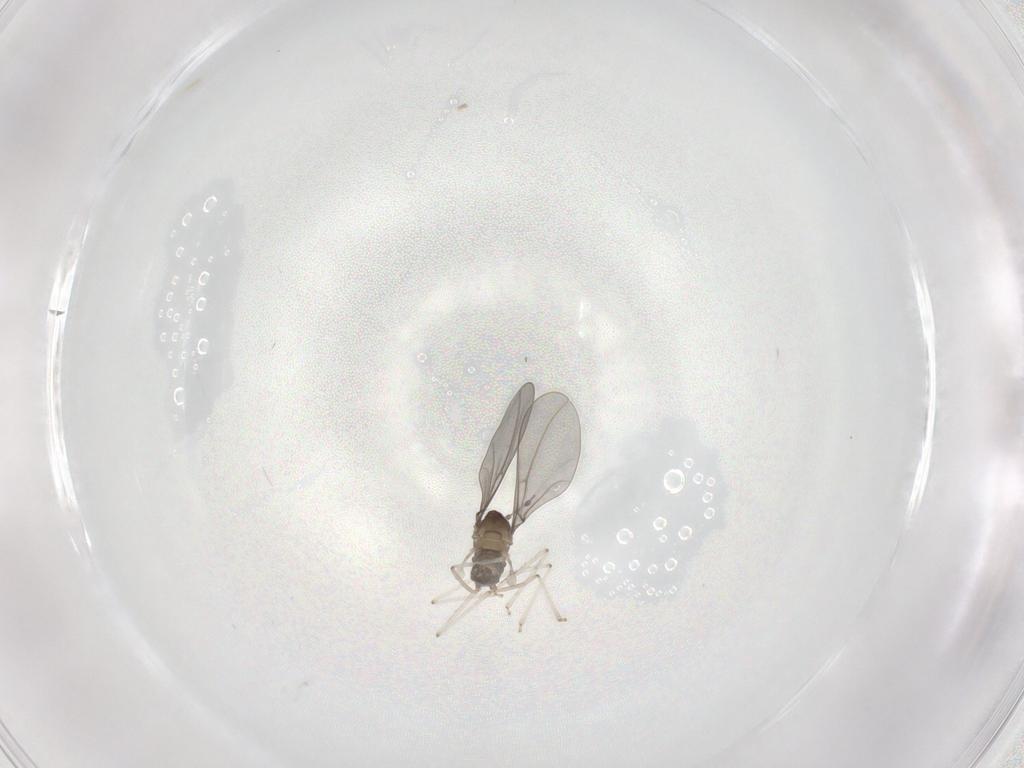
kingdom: Animalia
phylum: Arthropoda
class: Insecta
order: Diptera
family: Cecidomyiidae
